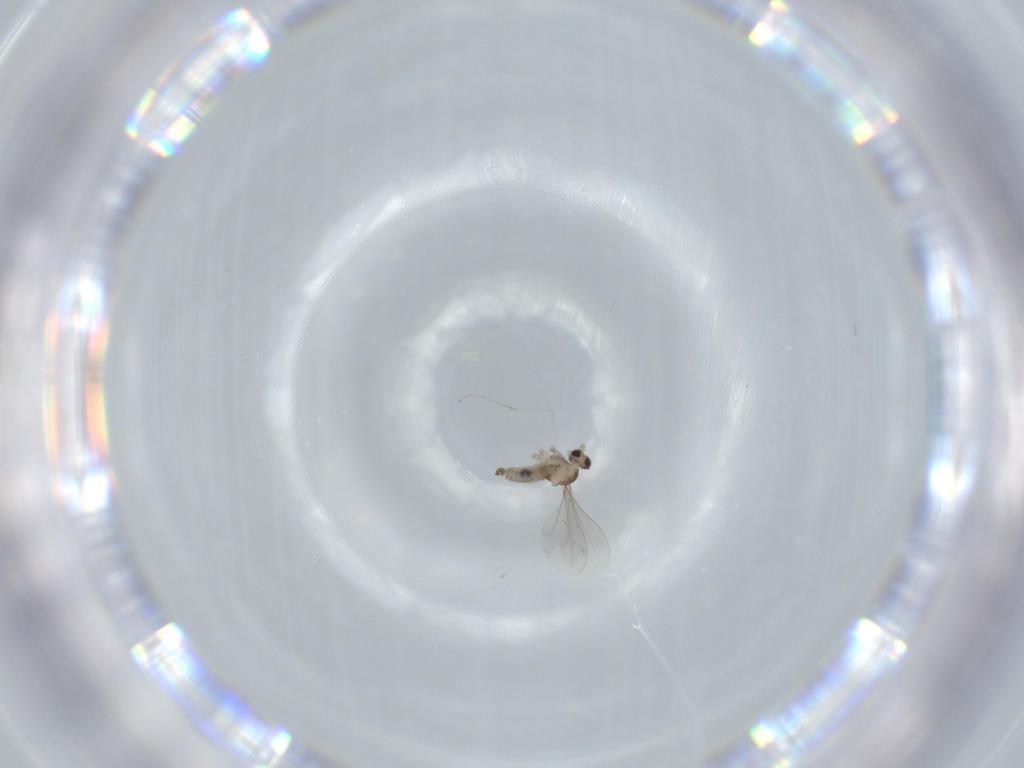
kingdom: Animalia
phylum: Arthropoda
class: Insecta
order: Diptera
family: Cecidomyiidae
